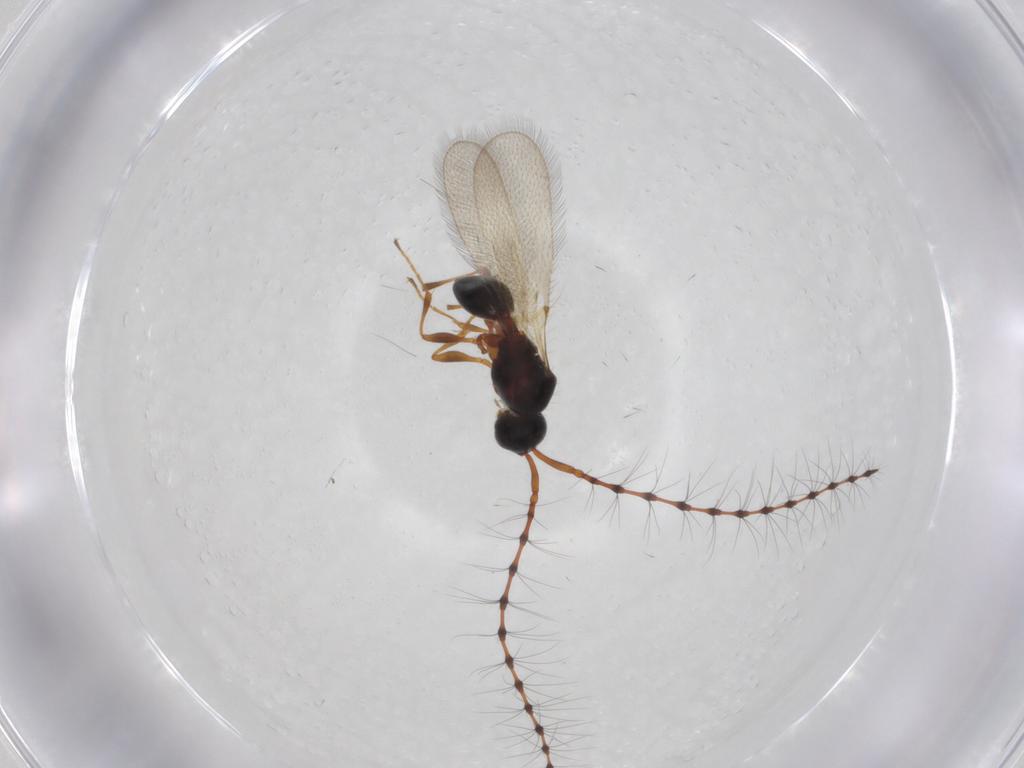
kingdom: Animalia
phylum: Arthropoda
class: Insecta
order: Hymenoptera
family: Diapriidae
